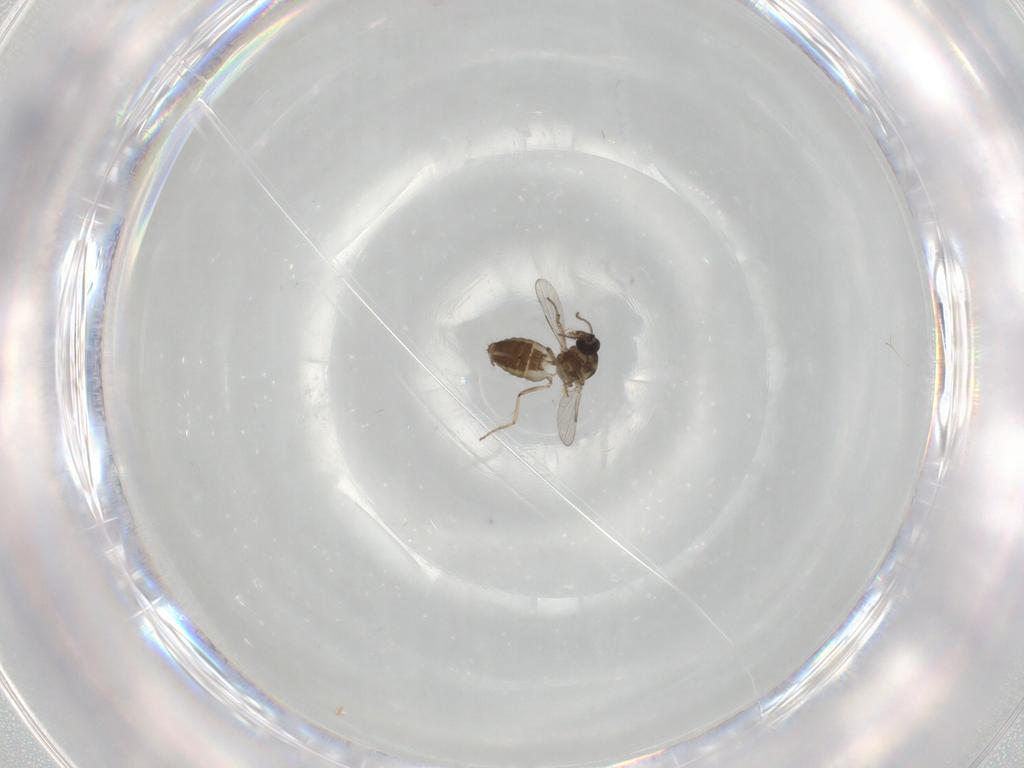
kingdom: Animalia
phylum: Arthropoda
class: Insecta
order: Diptera
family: Ceratopogonidae
